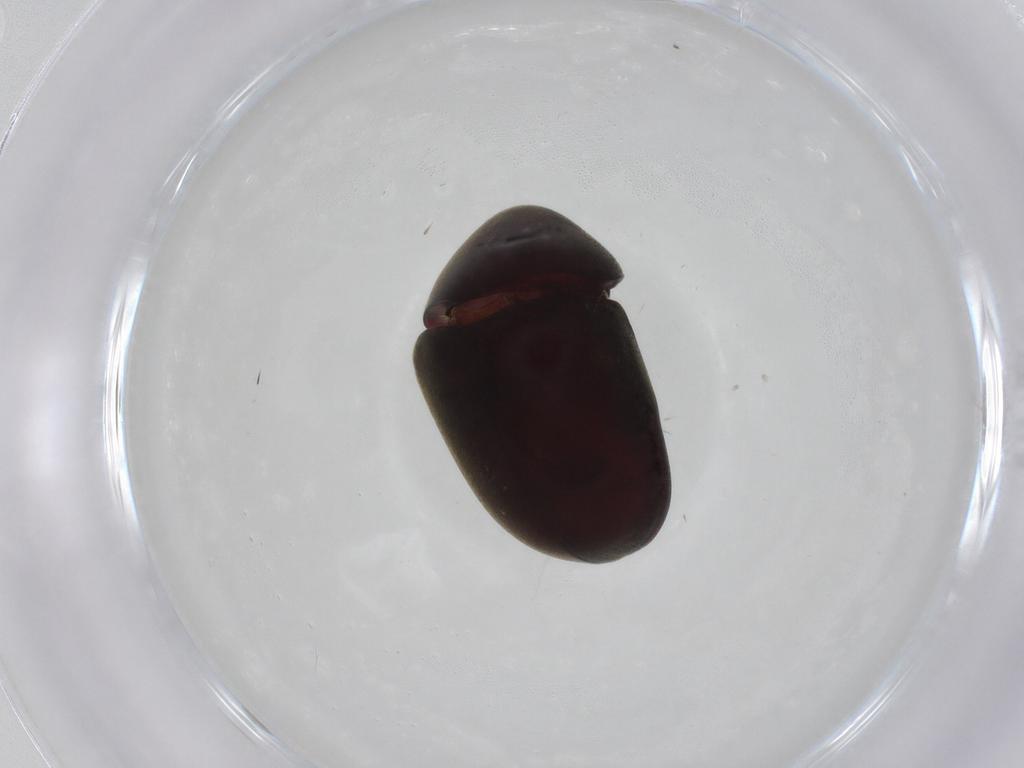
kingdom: Animalia
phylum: Arthropoda
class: Insecta
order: Coleoptera
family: Ptinidae
